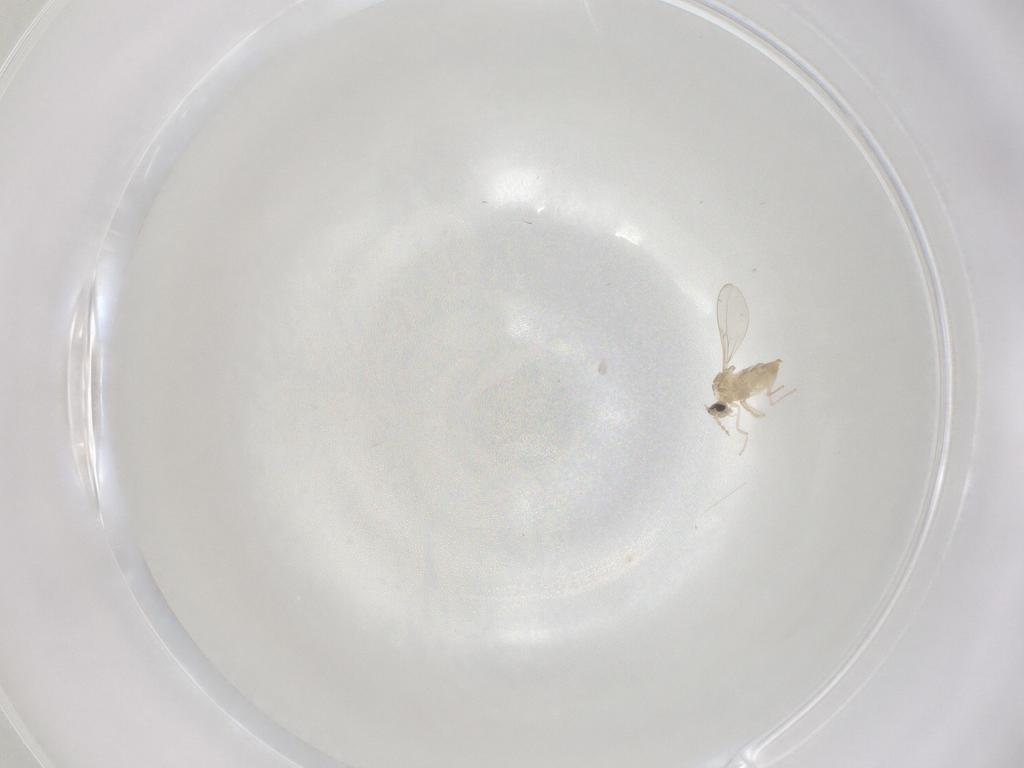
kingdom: Animalia
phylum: Arthropoda
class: Insecta
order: Diptera
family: Cecidomyiidae
